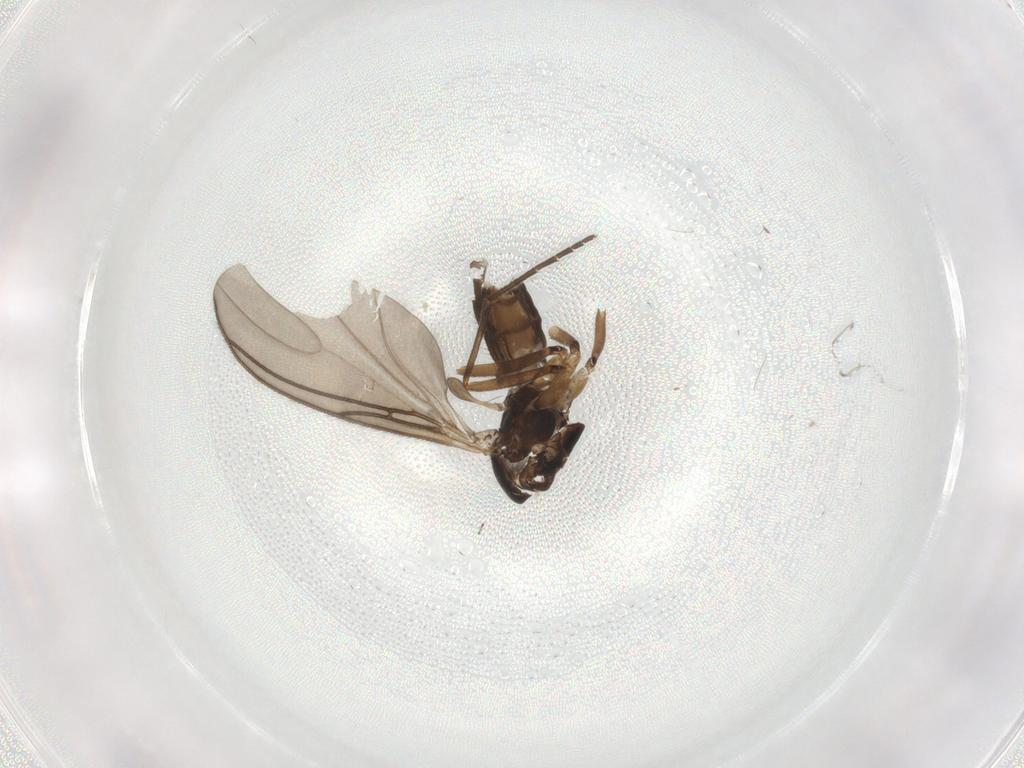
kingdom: Animalia
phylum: Arthropoda
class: Insecta
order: Diptera
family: Sciaridae
